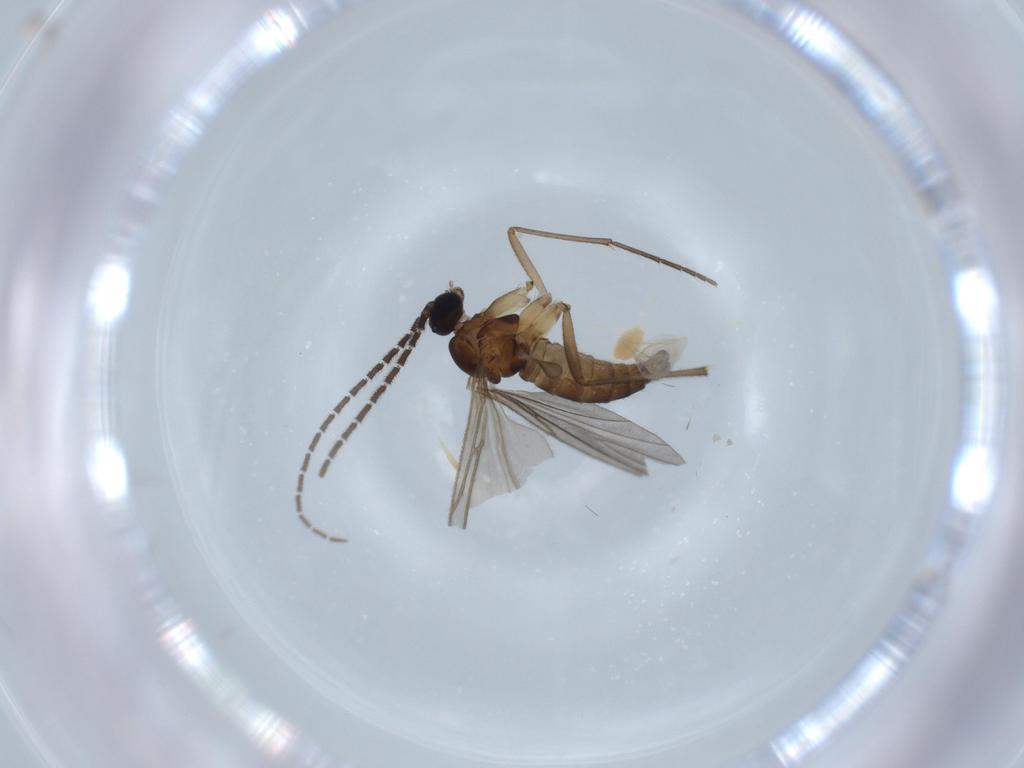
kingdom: Animalia
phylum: Arthropoda
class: Insecta
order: Diptera
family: Cecidomyiidae
